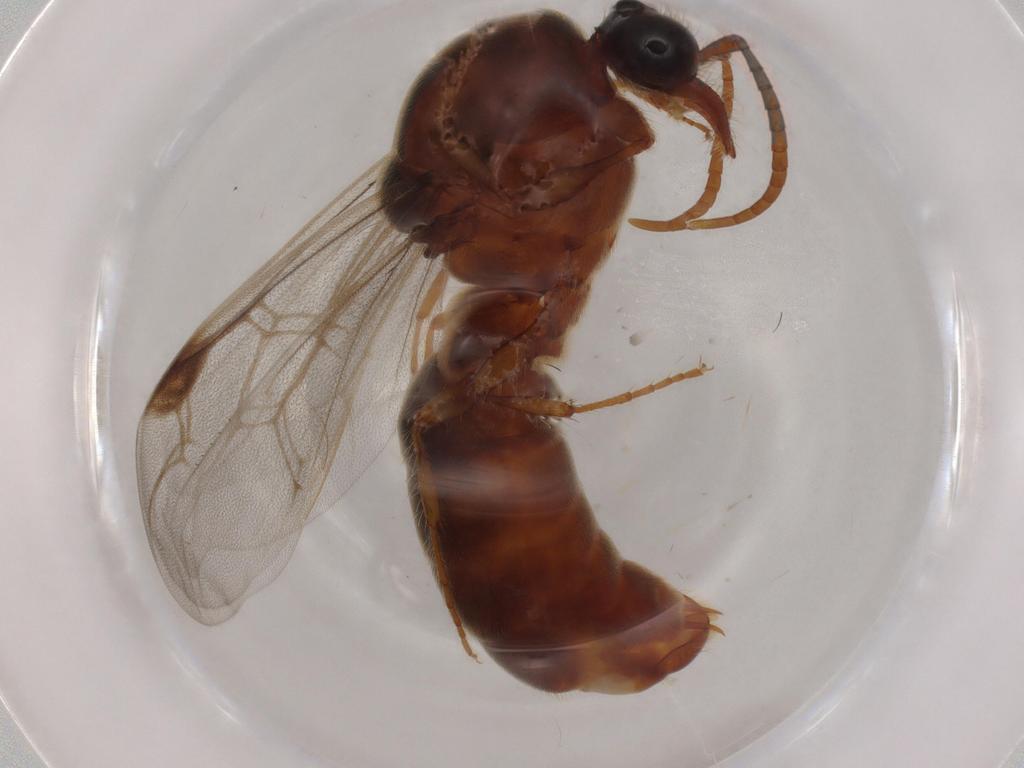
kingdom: Animalia
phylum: Arthropoda
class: Insecta
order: Hymenoptera
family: Formicidae
